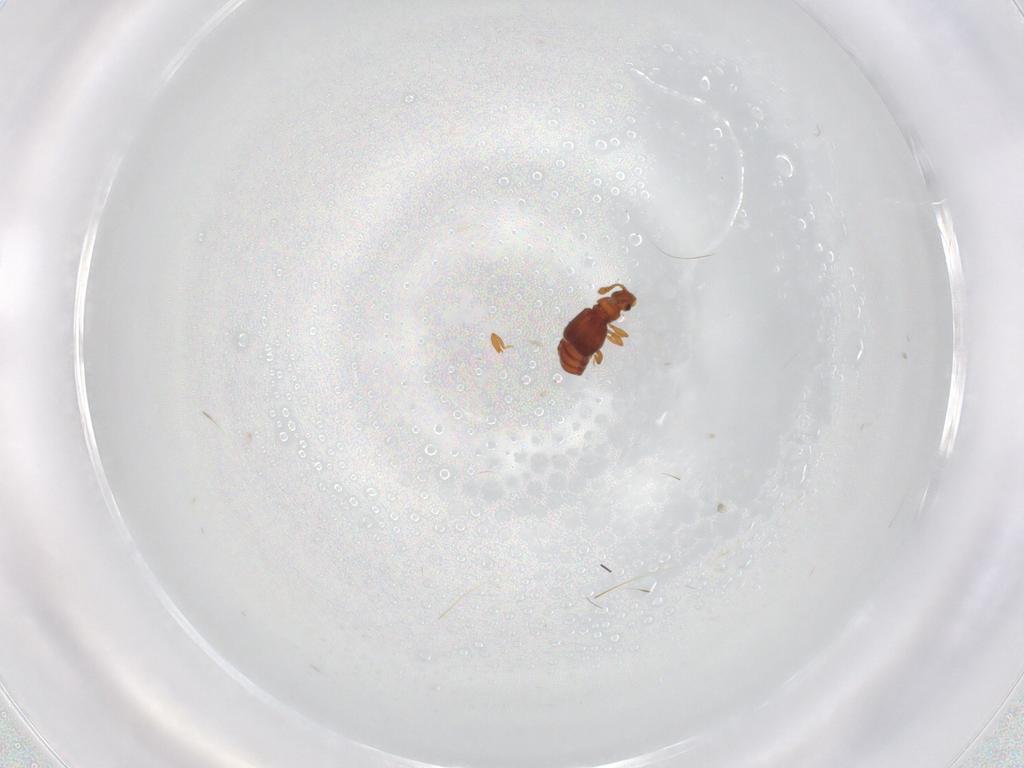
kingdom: Animalia
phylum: Arthropoda
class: Insecta
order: Coleoptera
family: Staphylinidae
